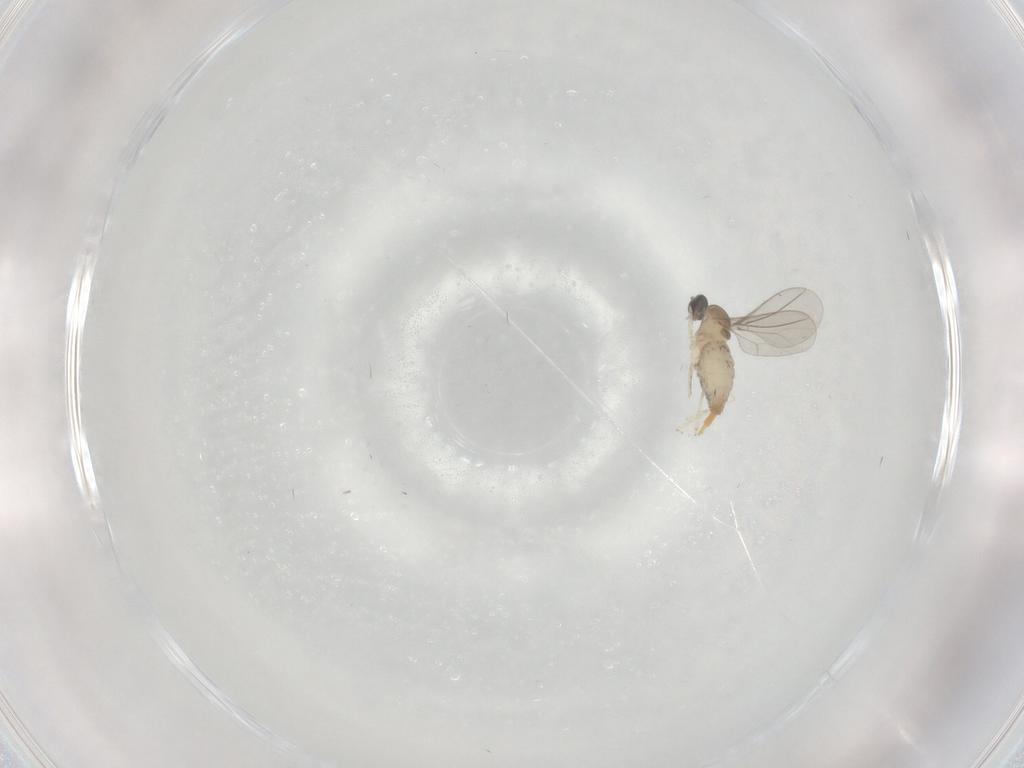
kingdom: Animalia
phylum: Arthropoda
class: Insecta
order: Diptera
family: Cecidomyiidae
